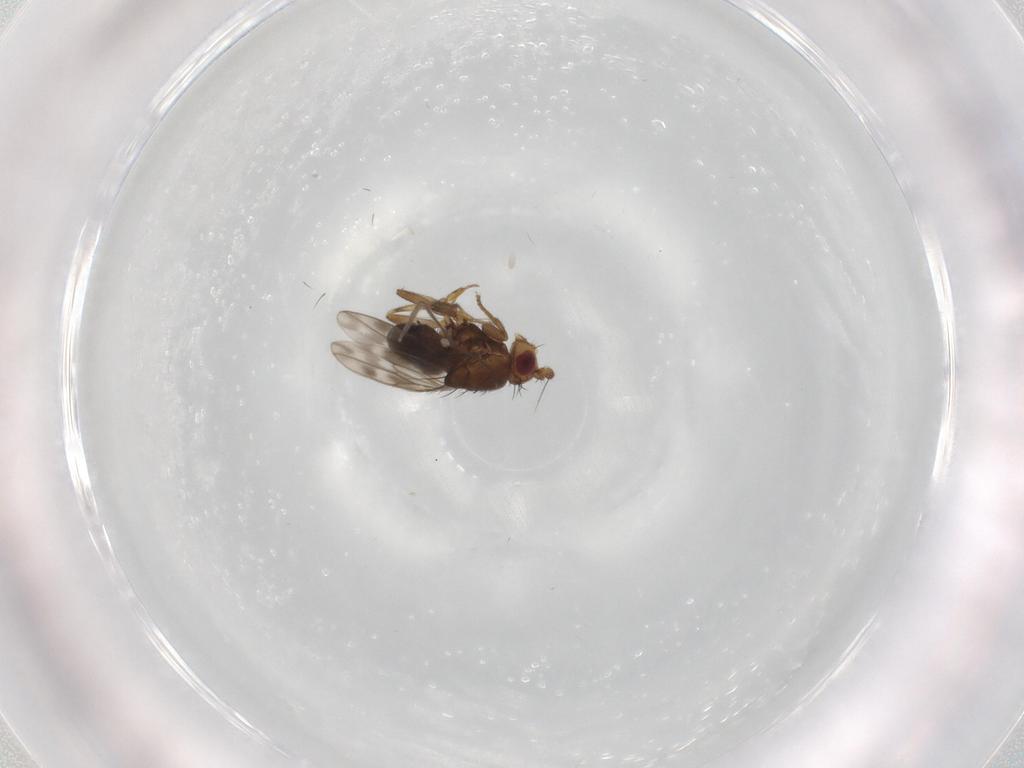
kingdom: Animalia
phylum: Arthropoda
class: Insecta
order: Diptera
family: Sphaeroceridae
